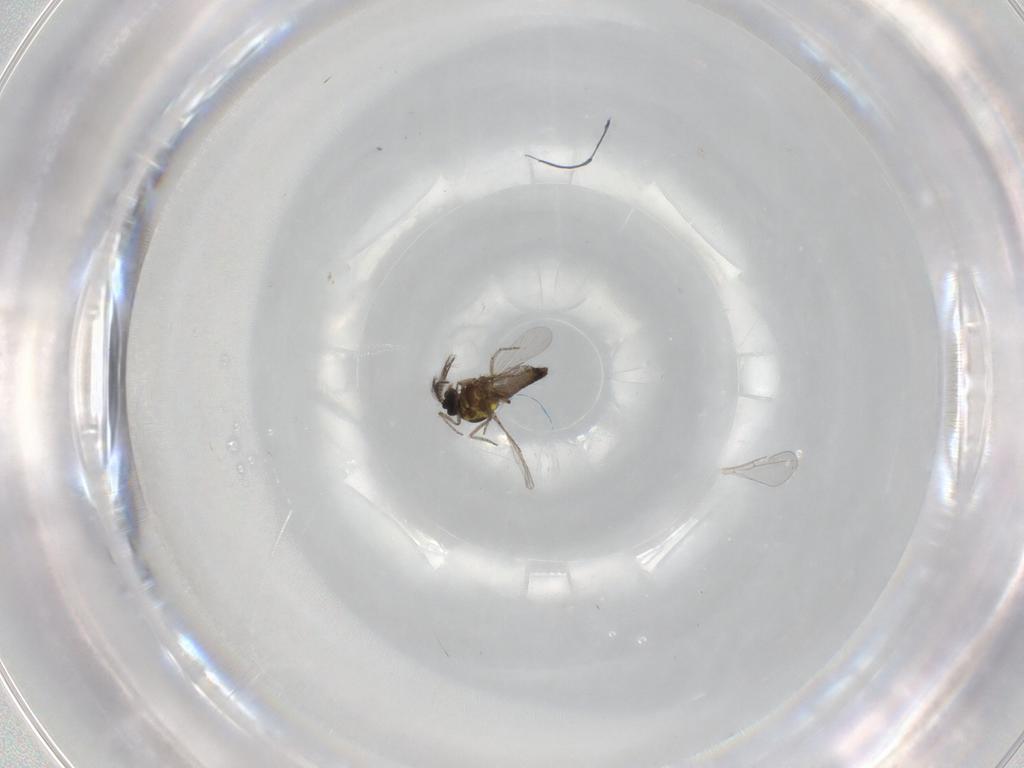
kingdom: Animalia
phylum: Arthropoda
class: Insecta
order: Diptera
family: Cecidomyiidae
